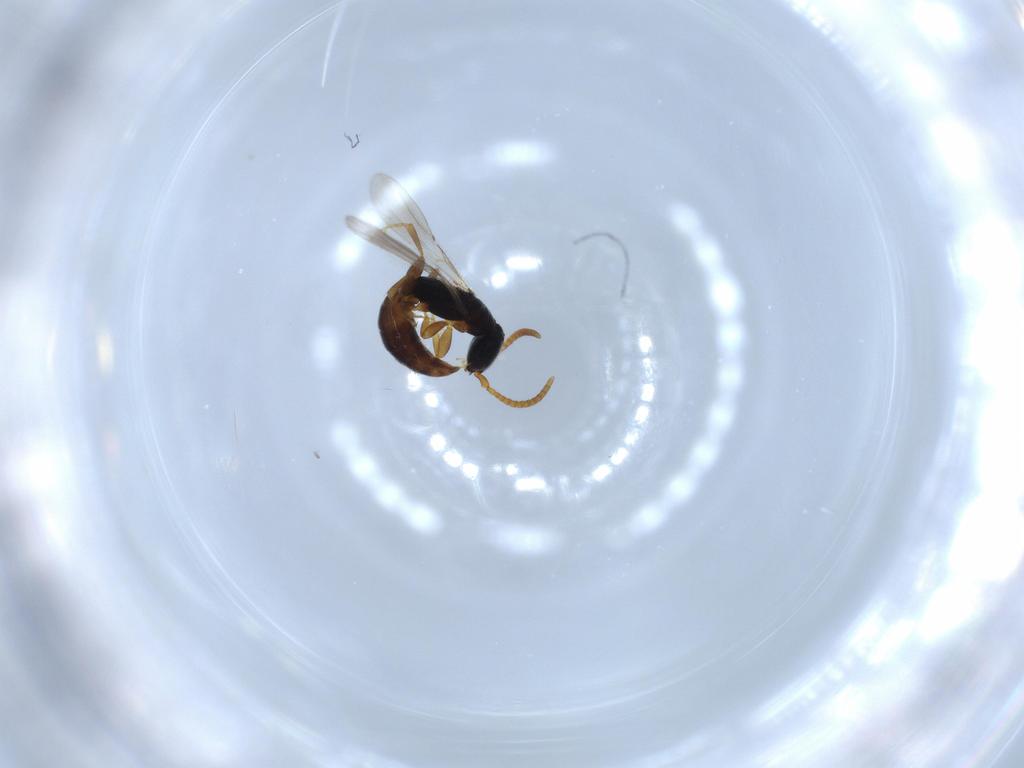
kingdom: Animalia
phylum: Arthropoda
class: Insecta
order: Hymenoptera
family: Bethylidae
